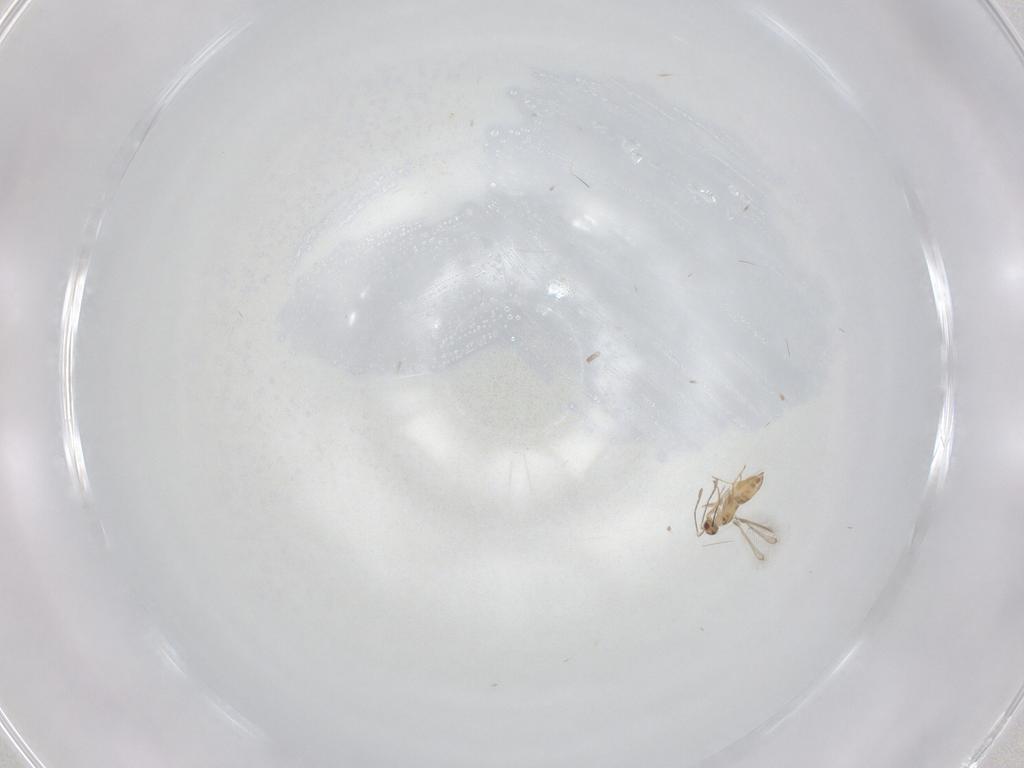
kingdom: Animalia
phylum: Arthropoda
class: Insecta
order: Hymenoptera
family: Mymaridae
